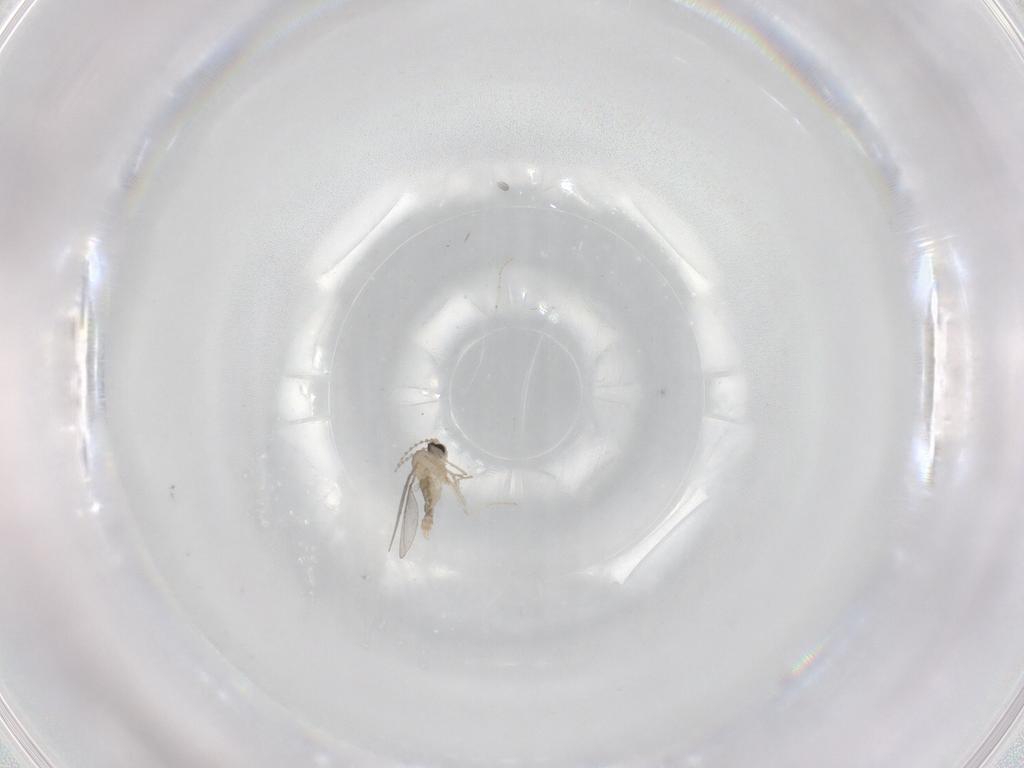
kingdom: Animalia
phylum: Arthropoda
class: Insecta
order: Diptera
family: Cecidomyiidae
